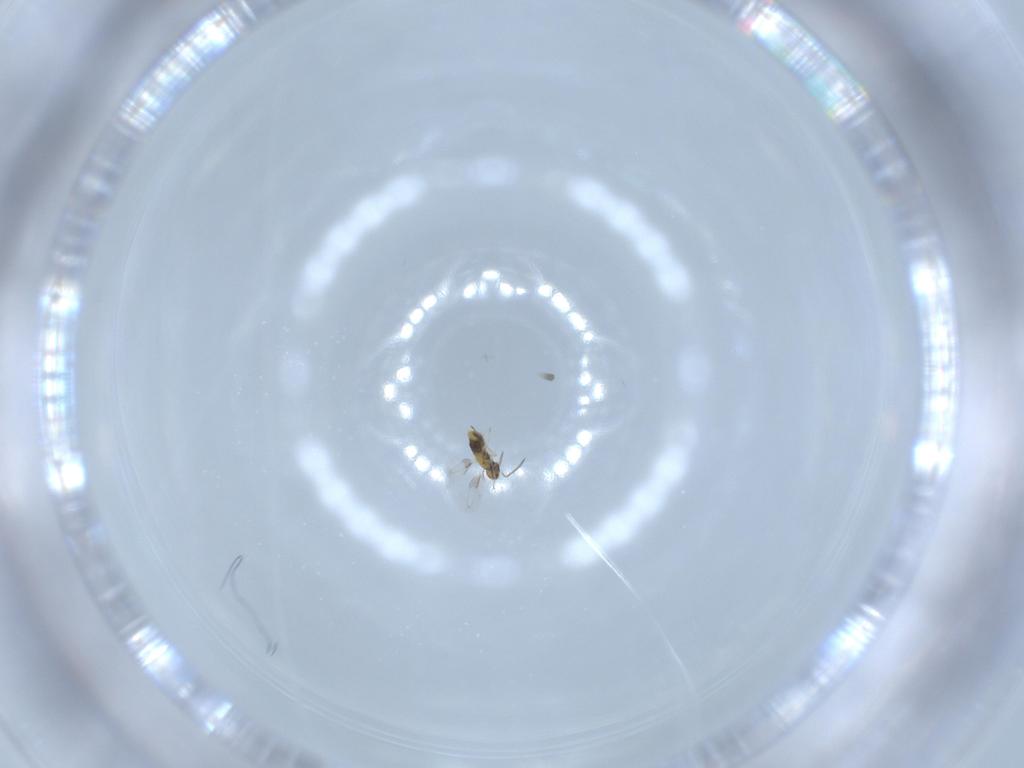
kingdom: Animalia
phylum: Arthropoda
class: Insecta
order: Hymenoptera
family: Scelionidae
